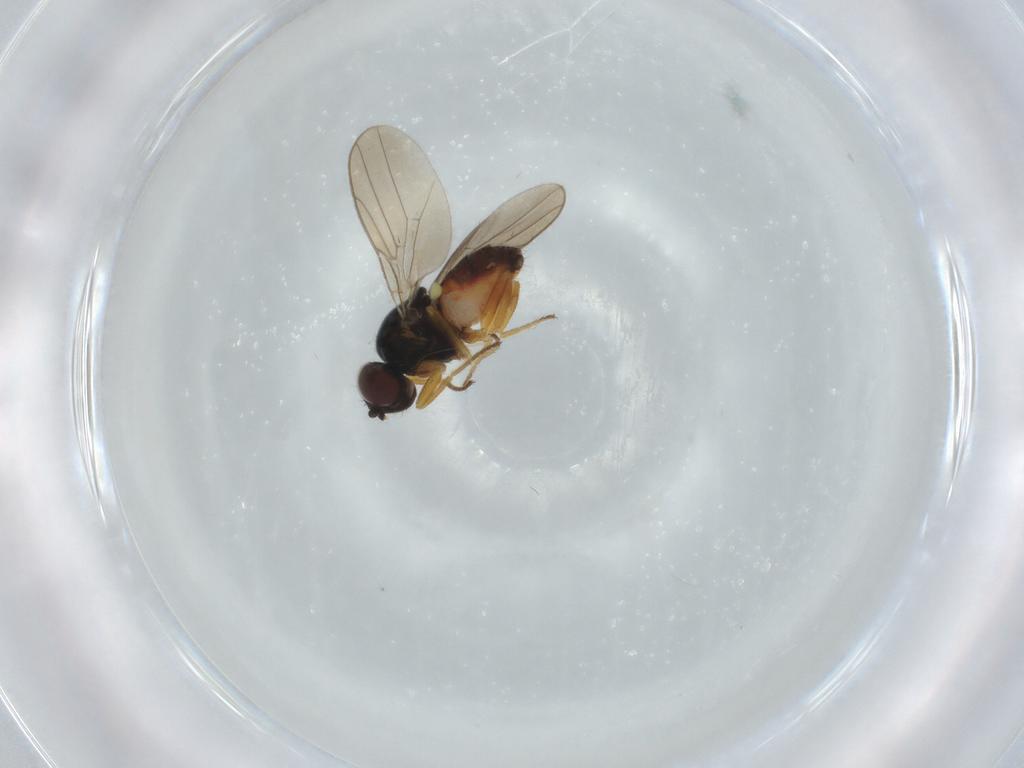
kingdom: Animalia
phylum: Arthropoda
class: Insecta
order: Diptera
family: Chloropidae
